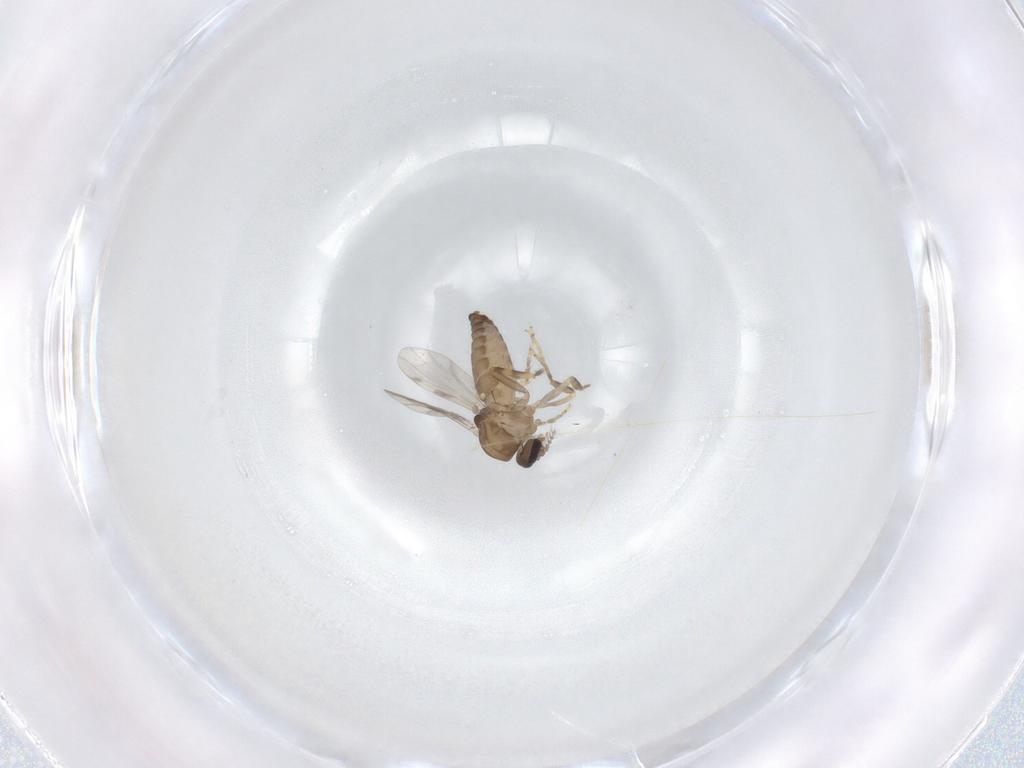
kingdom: Animalia
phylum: Arthropoda
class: Insecta
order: Diptera
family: Ceratopogonidae
